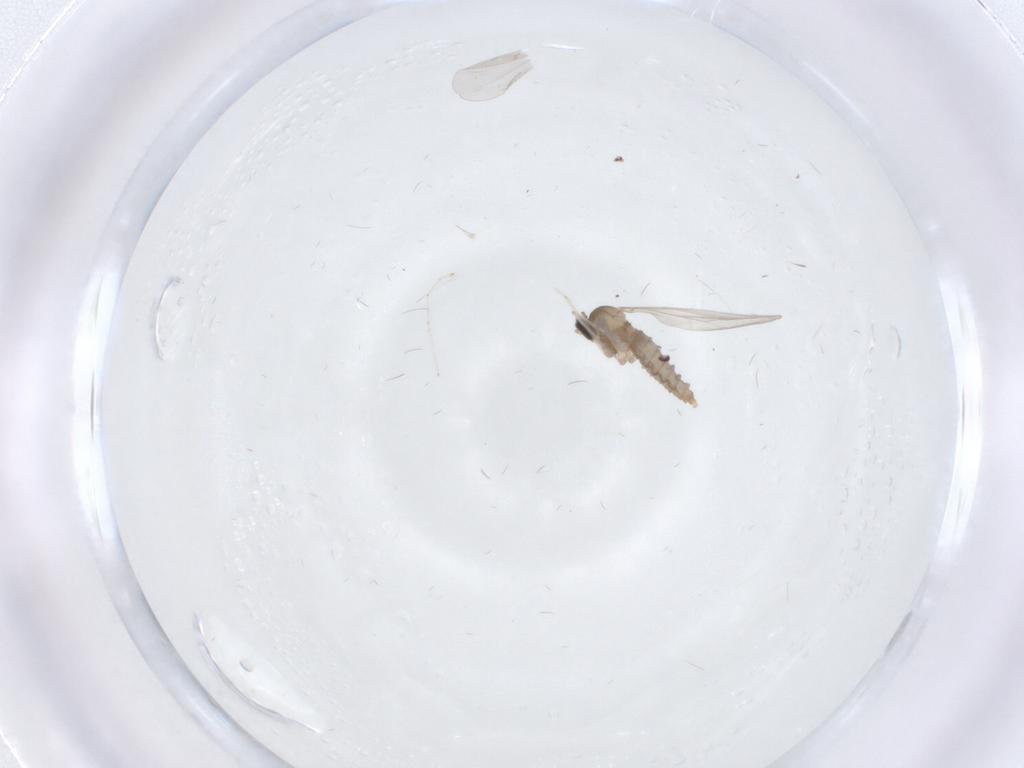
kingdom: Animalia
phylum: Arthropoda
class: Insecta
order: Diptera
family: Cecidomyiidae
